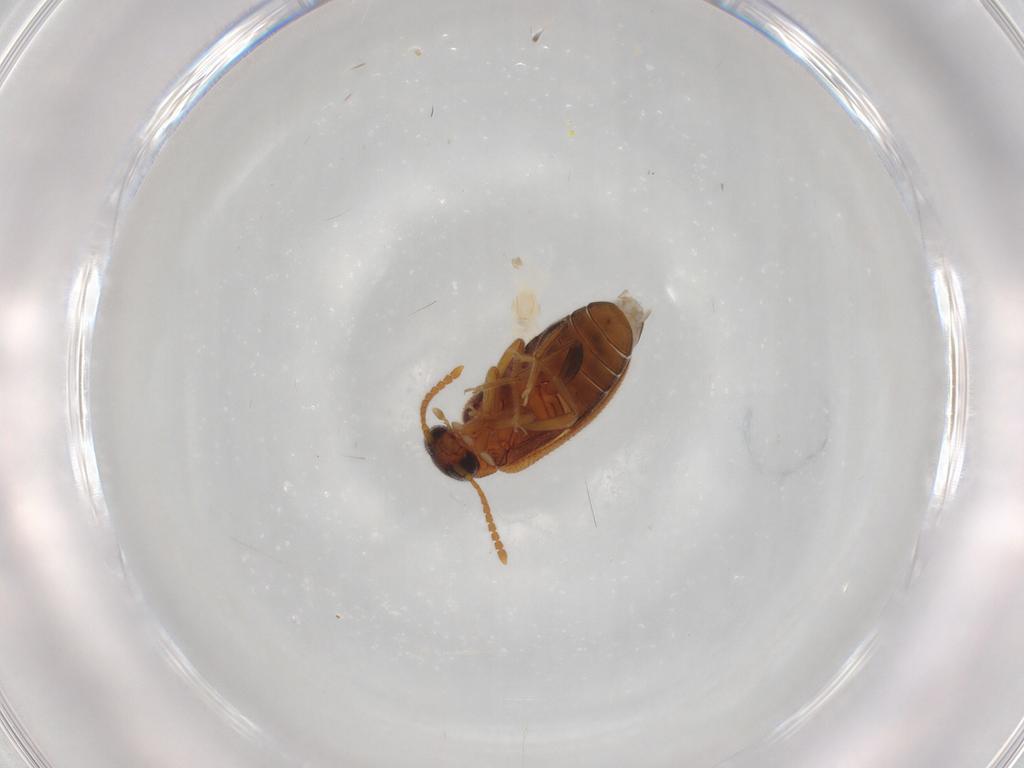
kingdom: Animalia
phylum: Arthropoda
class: Insecta
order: Coleoptera
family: Aderidae
